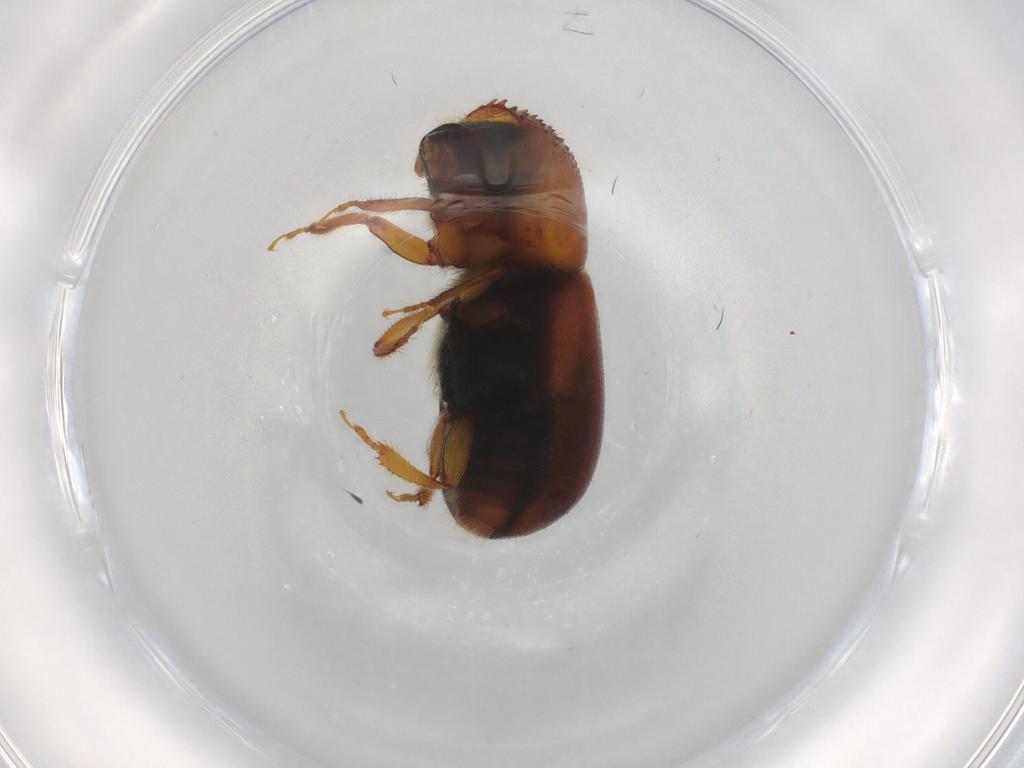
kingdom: Animalia
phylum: Arthropoda
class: Insecta
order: Coleoptera
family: Curculionidae
